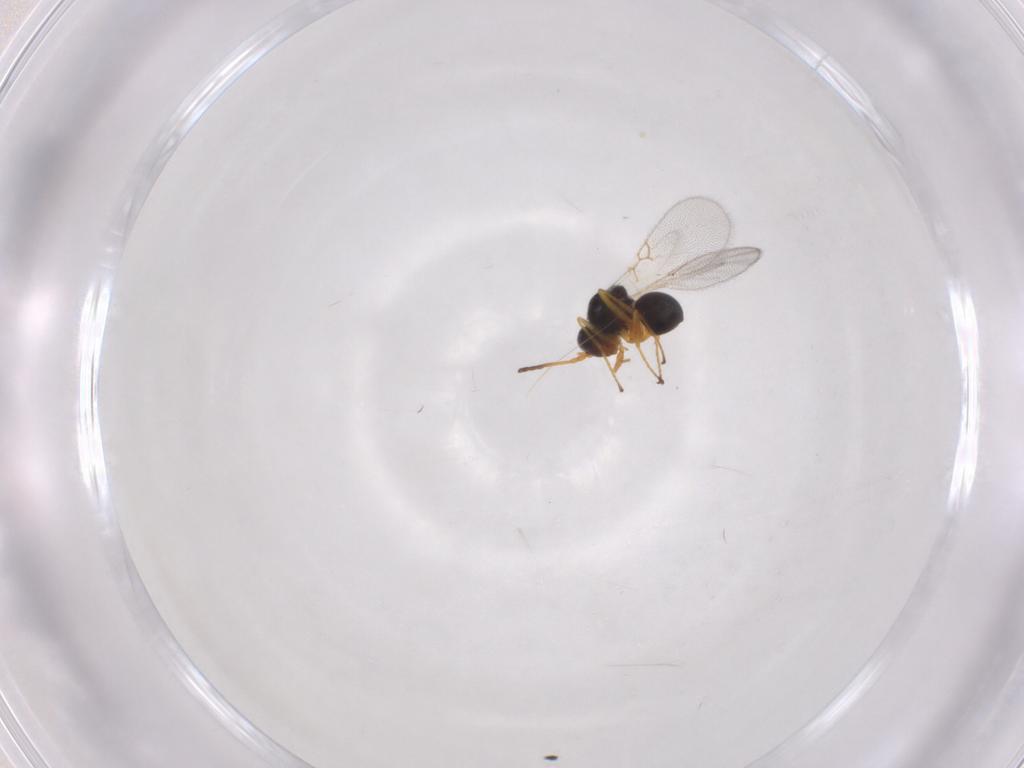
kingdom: Animalia
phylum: Arthropoda
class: Insecta
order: Hymenoptera
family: Figitidae
